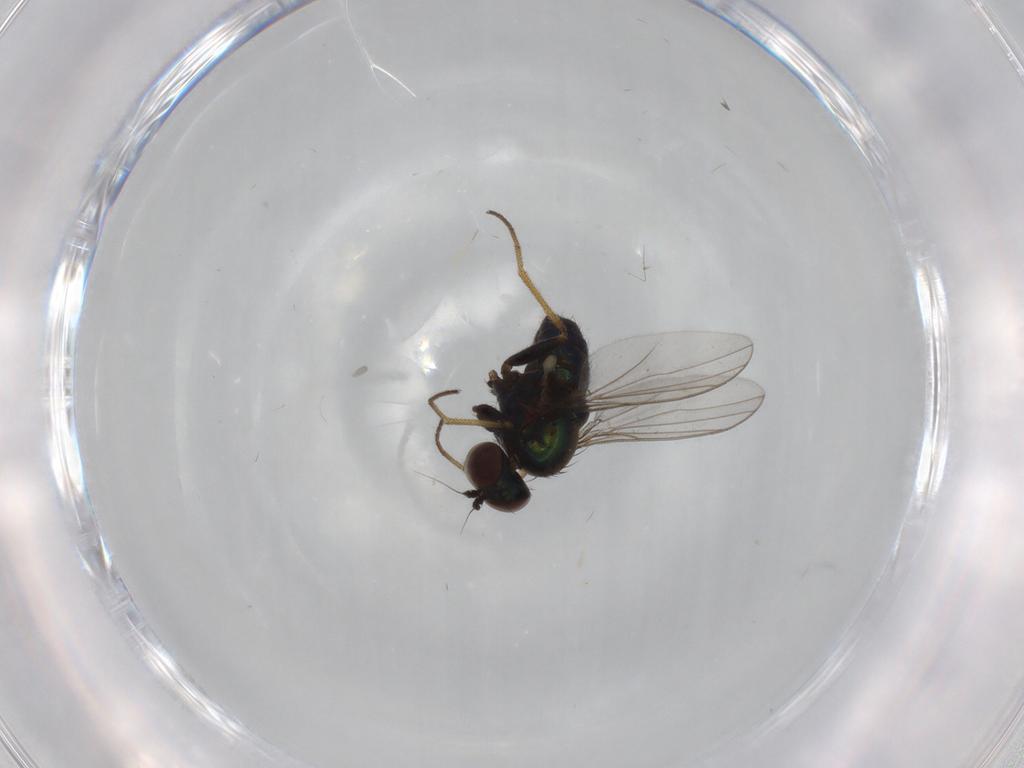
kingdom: Animalia
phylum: Arthropoda
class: Insecta
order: Diptera
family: Dolichopodidae
